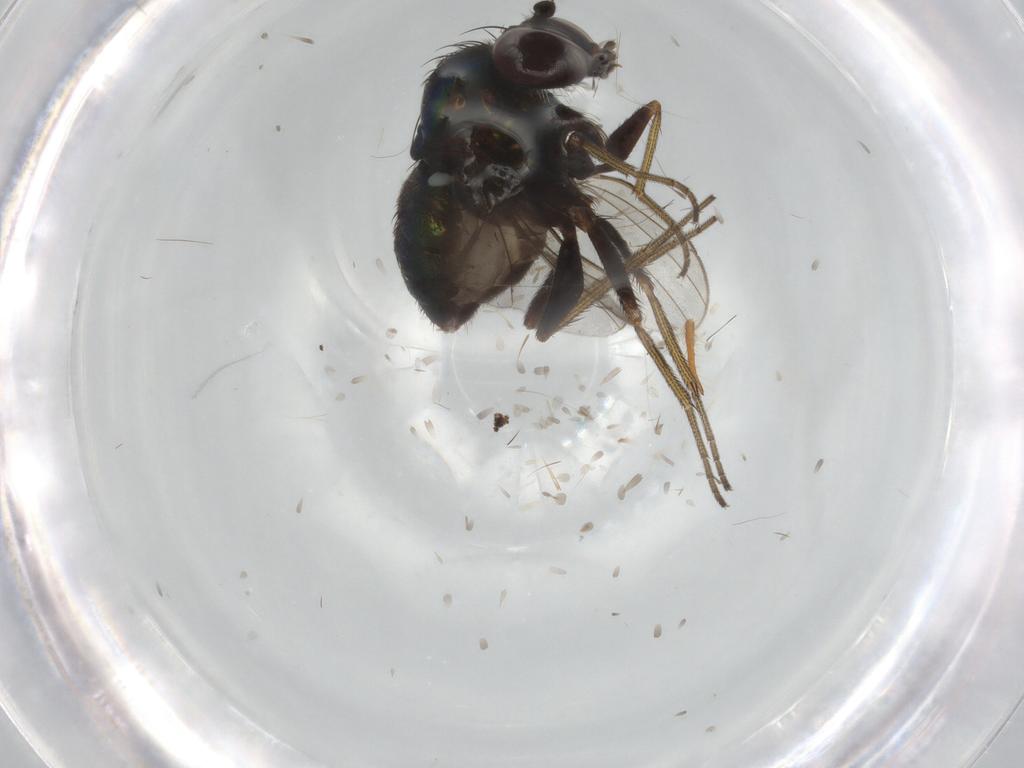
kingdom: Animalia
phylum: Arthropoda
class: Insecta
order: Diptera
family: Dolichopodidae
